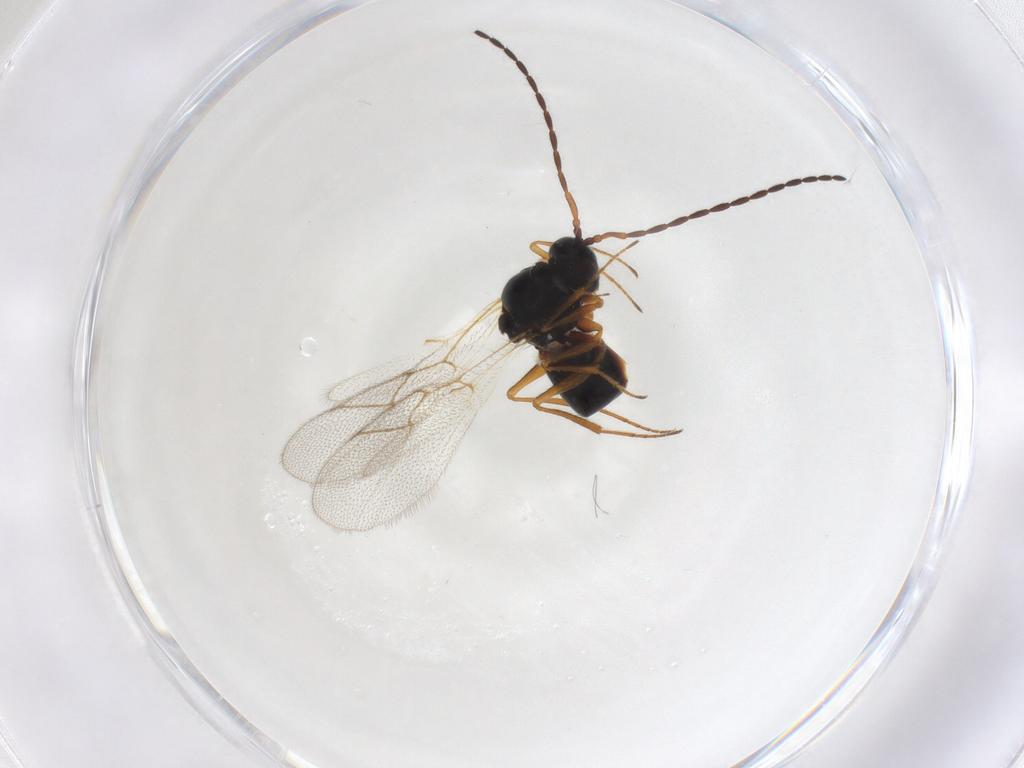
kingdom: Animalia
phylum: Arthropoda
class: Insecta
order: Hymenoptera
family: Figitidae
